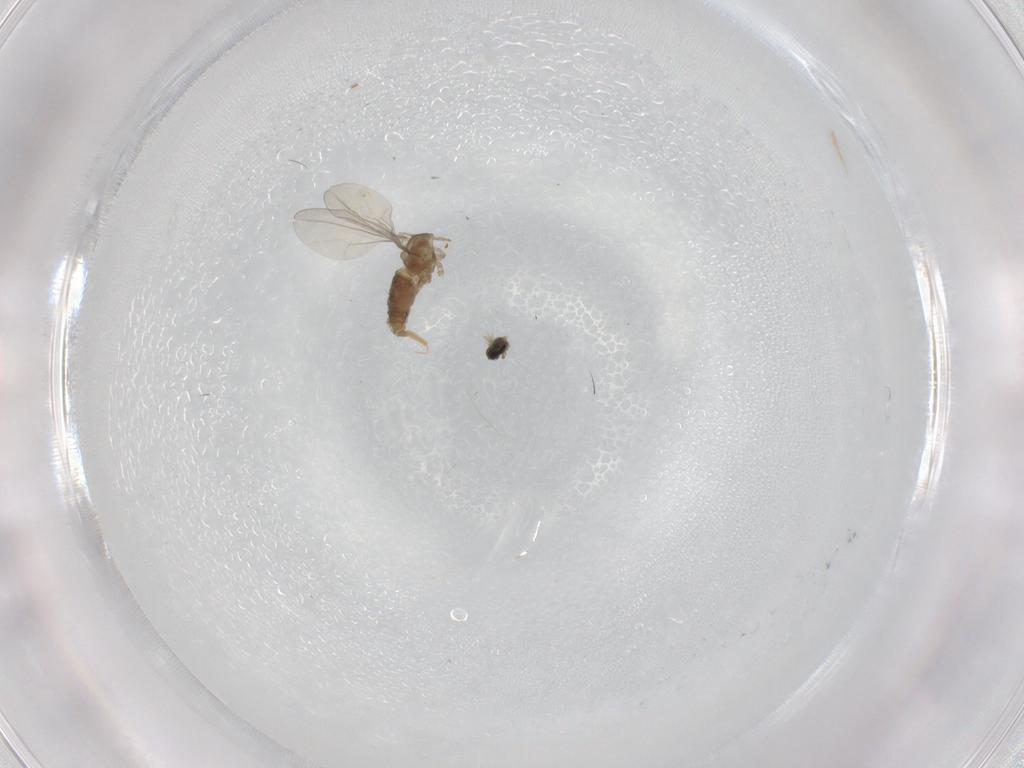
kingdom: Animalia
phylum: Arthropoda
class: Insecta
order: Diptera
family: Cecidomyiidae
